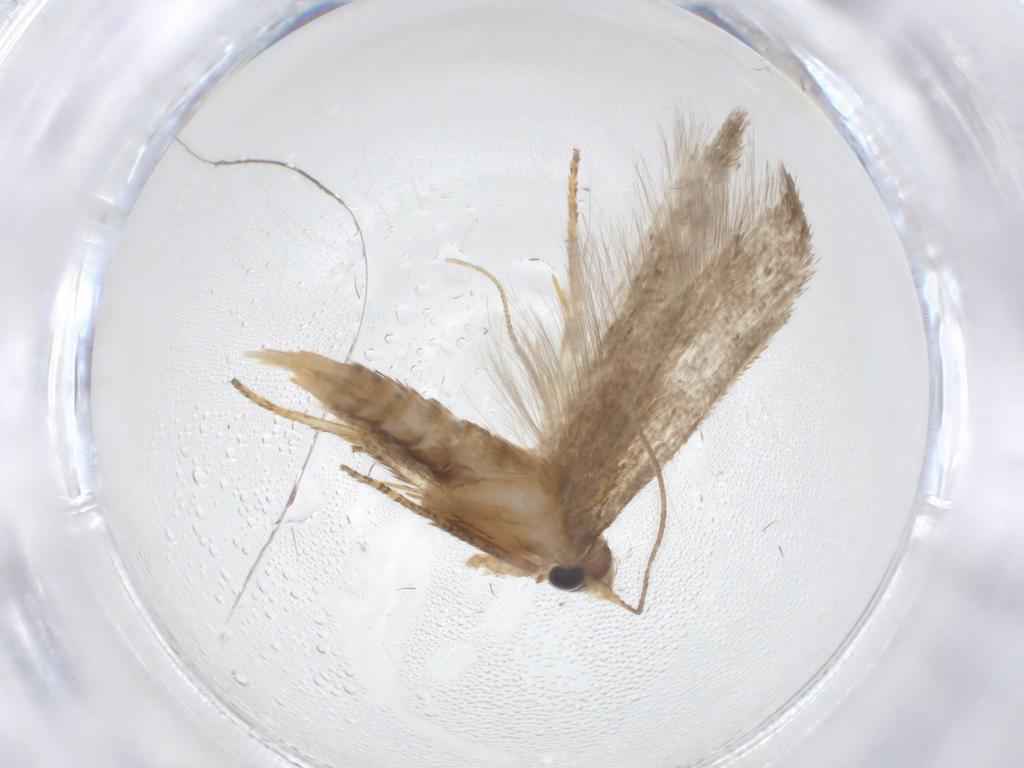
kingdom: Animalia
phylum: Arthropoda
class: Insecta
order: Lepidoptera
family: Blastobasidae
